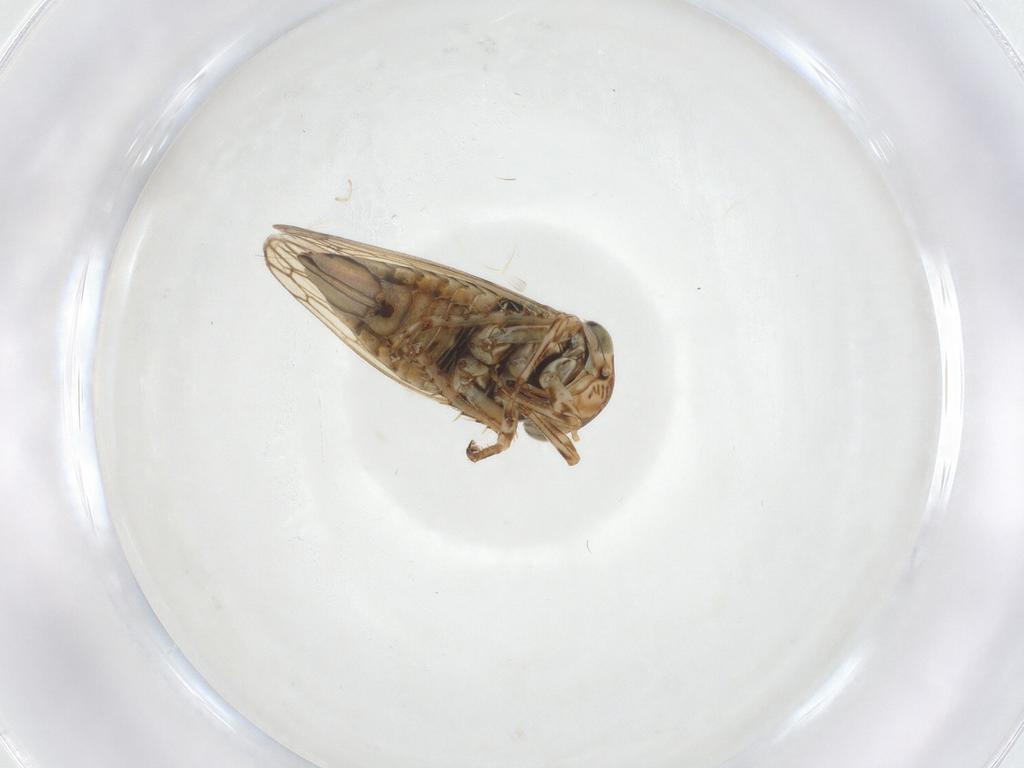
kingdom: Animalia
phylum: Arthropoda
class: Insecta
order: Hemiptera
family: Cicadellidae
